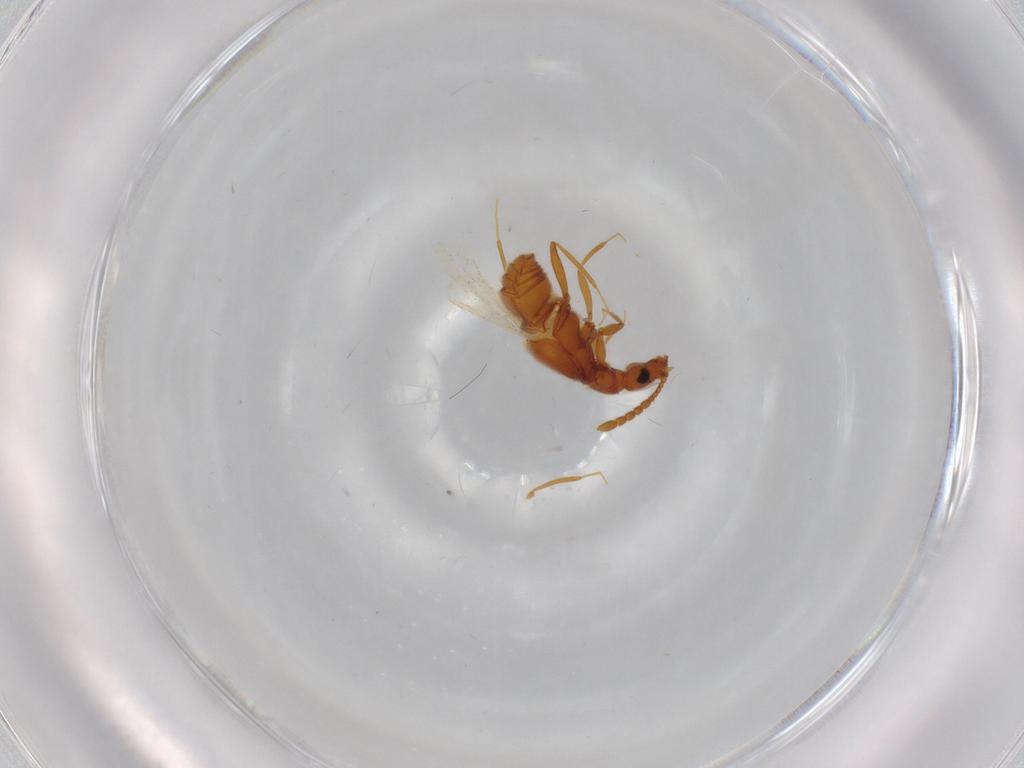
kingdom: Animalia
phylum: Arthropoda
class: Insecta
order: Coleoptera
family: Staphylinidae
